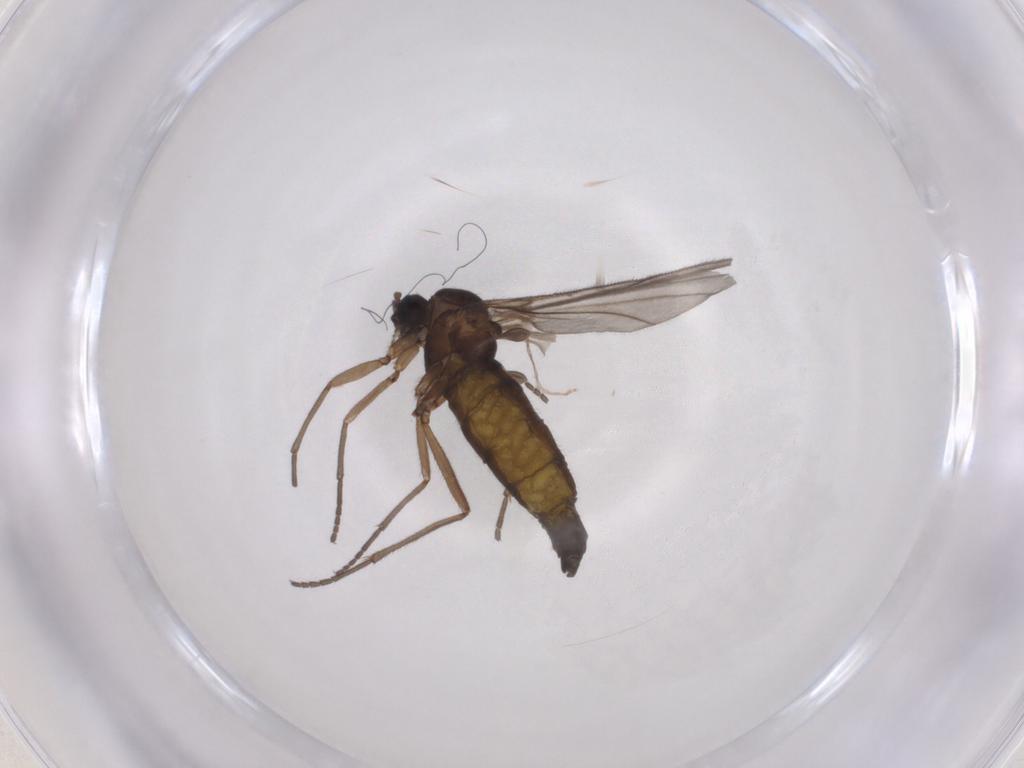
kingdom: Animalia
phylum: Arthropoda
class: Insecta
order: Diptera
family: Sciaridae
